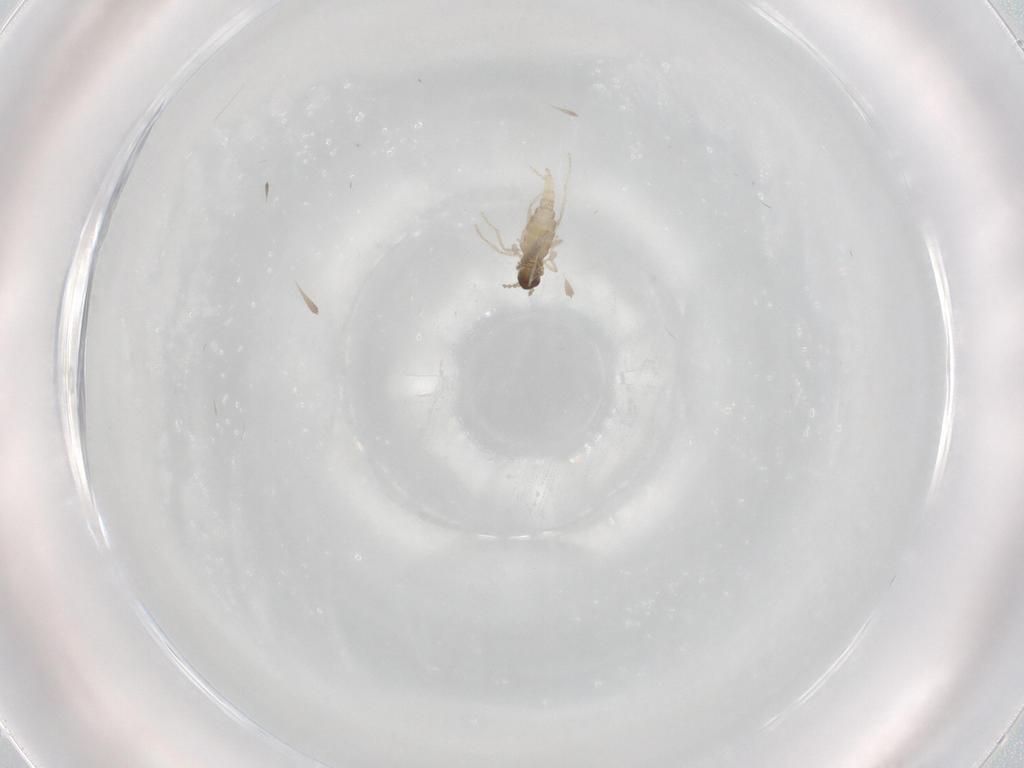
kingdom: Animalia
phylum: Arthropoda
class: Insecta
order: Diptera
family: Cecidomyiidae
